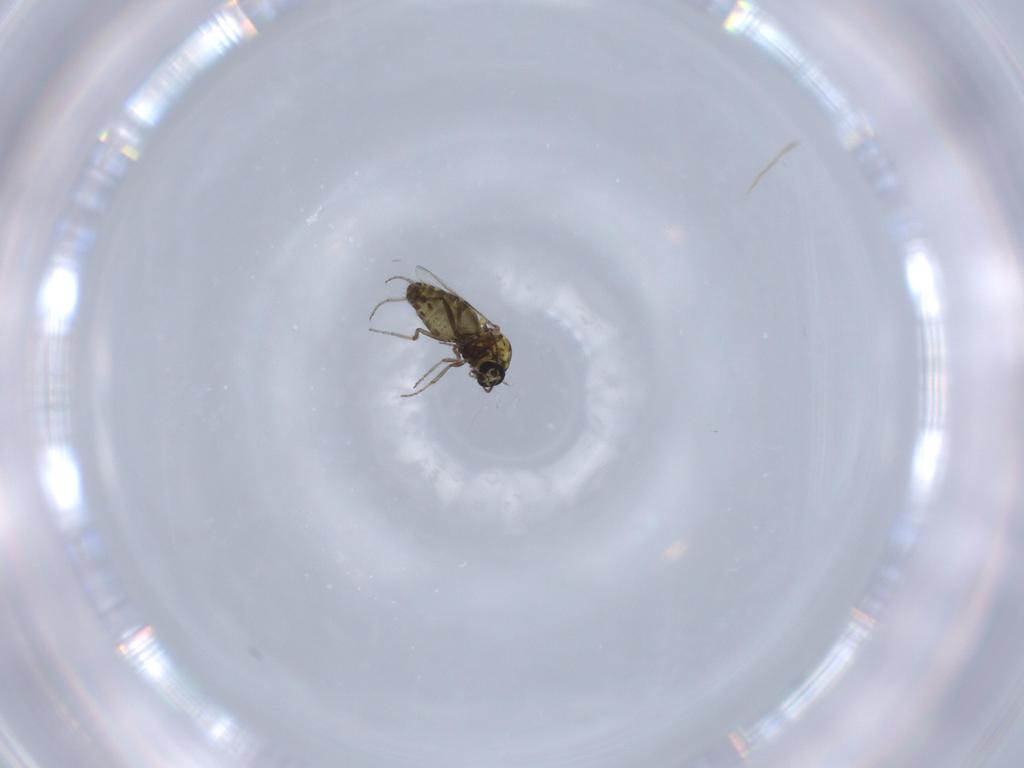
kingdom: Animalia
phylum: Arthropoda
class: Insecta
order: Diptera
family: Ceratopogonidae
